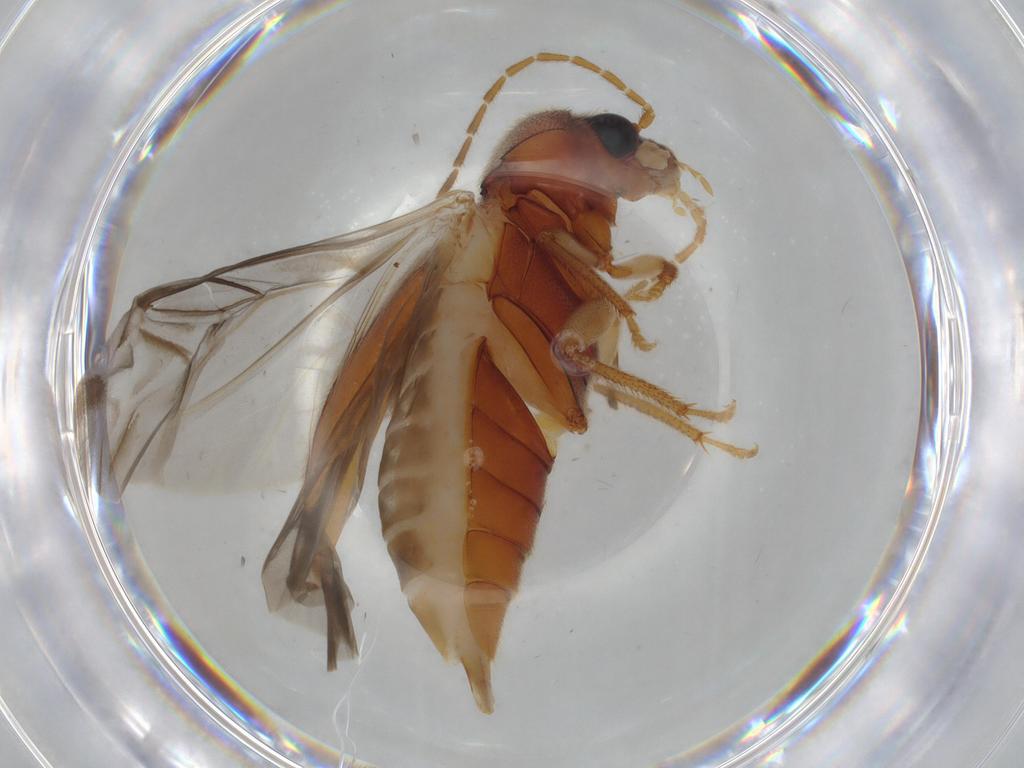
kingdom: Animalia
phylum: Arthropoda
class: Insecta
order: Coleoptera
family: Ptilodactylidae
